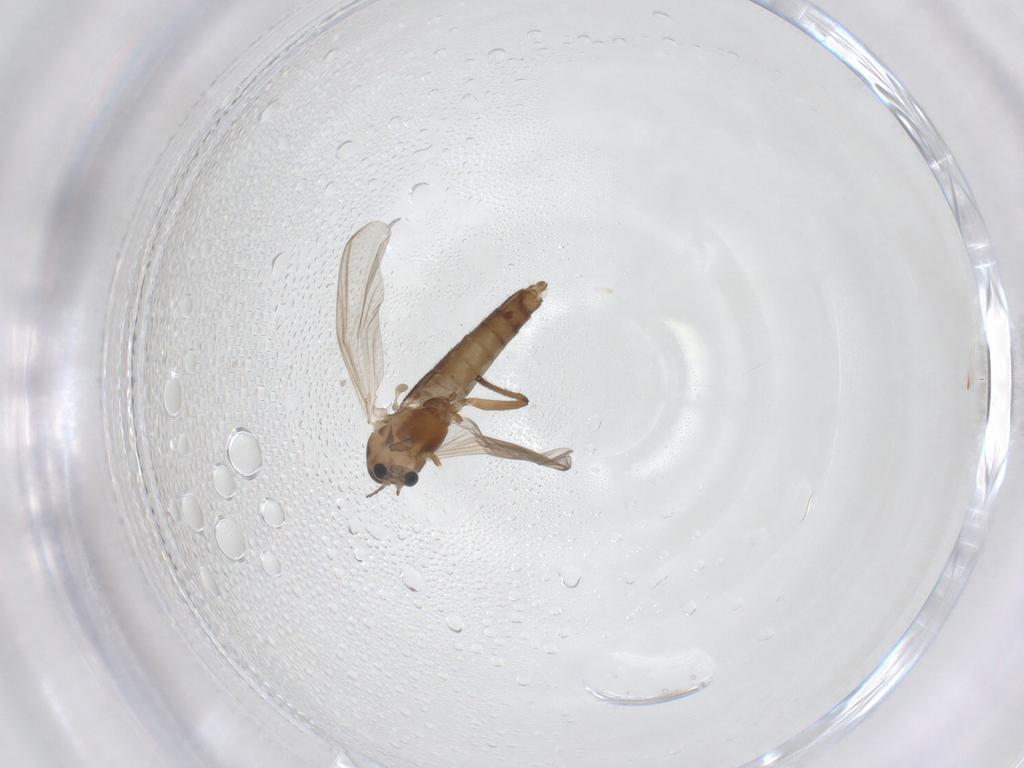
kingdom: Animalia
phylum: Arthropoda
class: Insecta
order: Diptera
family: Chironomidae
